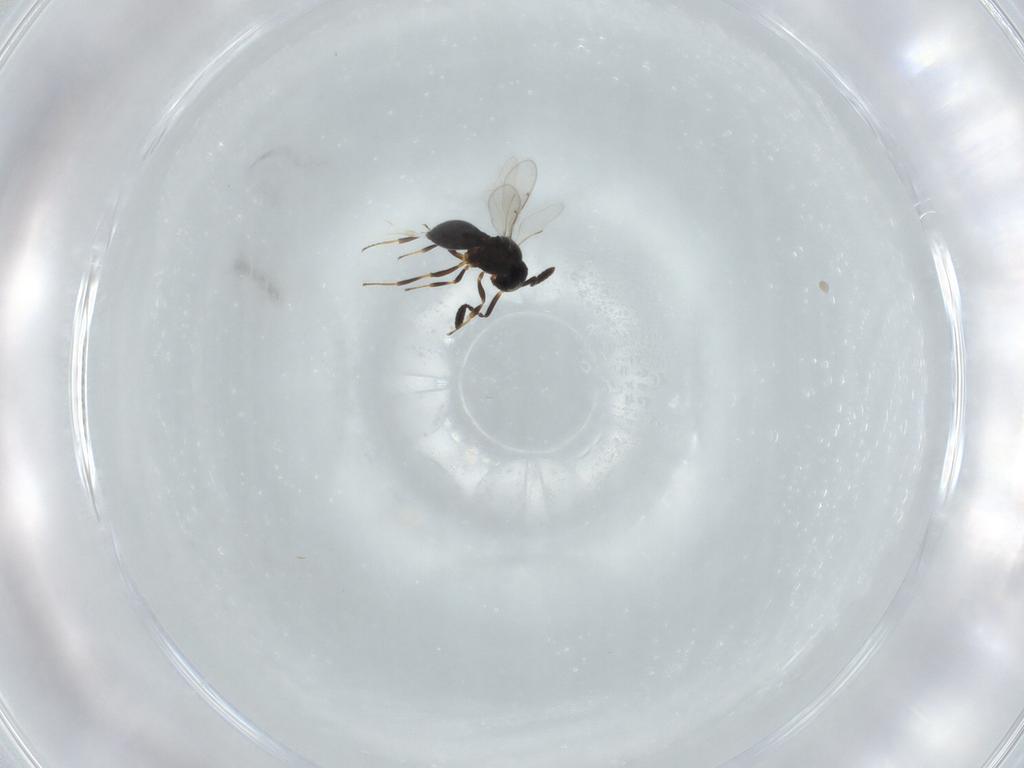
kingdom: Animalia
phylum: Arthropoda
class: Insecta
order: Hymenoptera
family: Scelionidae
